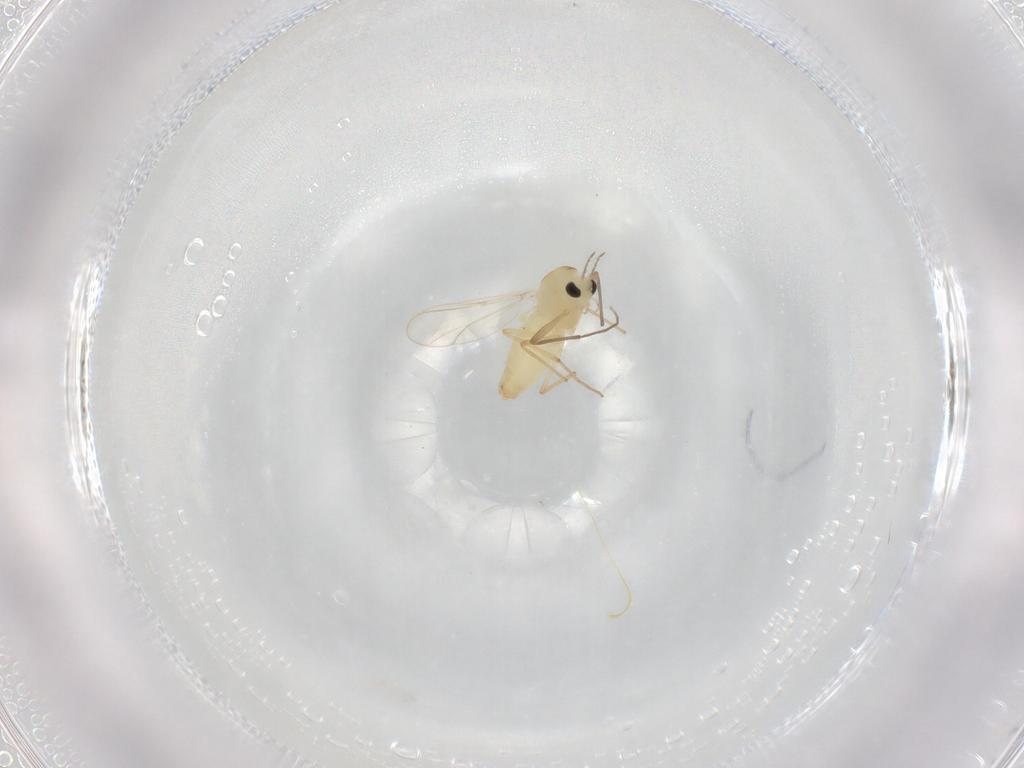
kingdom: Animalia
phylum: Arthropoda
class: Insecta
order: Diptera
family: Chironomidae
